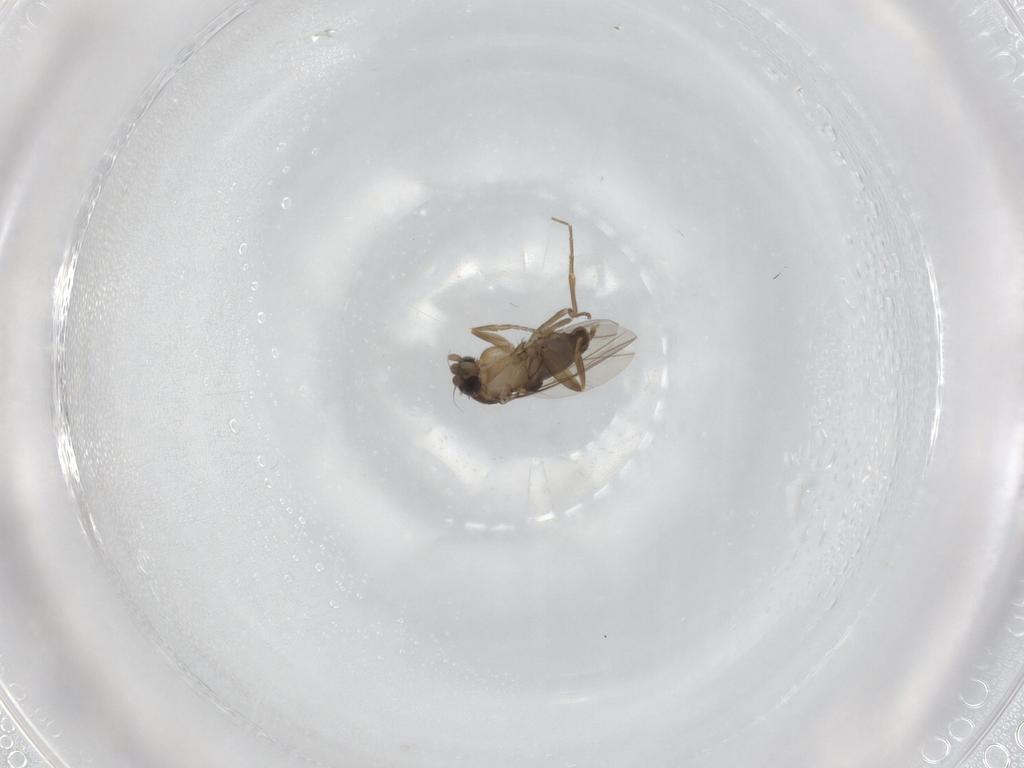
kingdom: Animalia
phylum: Arthropoda
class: Insecta
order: Diptera
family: Phoridae
